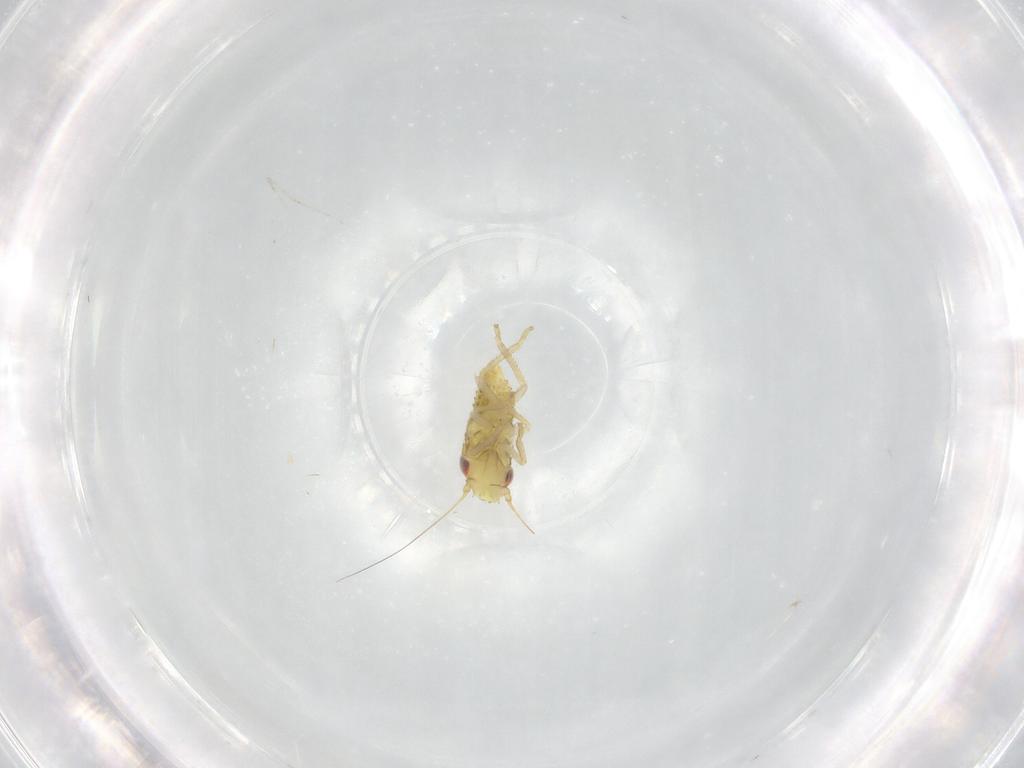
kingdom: Animalia
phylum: Arthropoda
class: Insecta
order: Hemiptera
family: Cicadellidae
